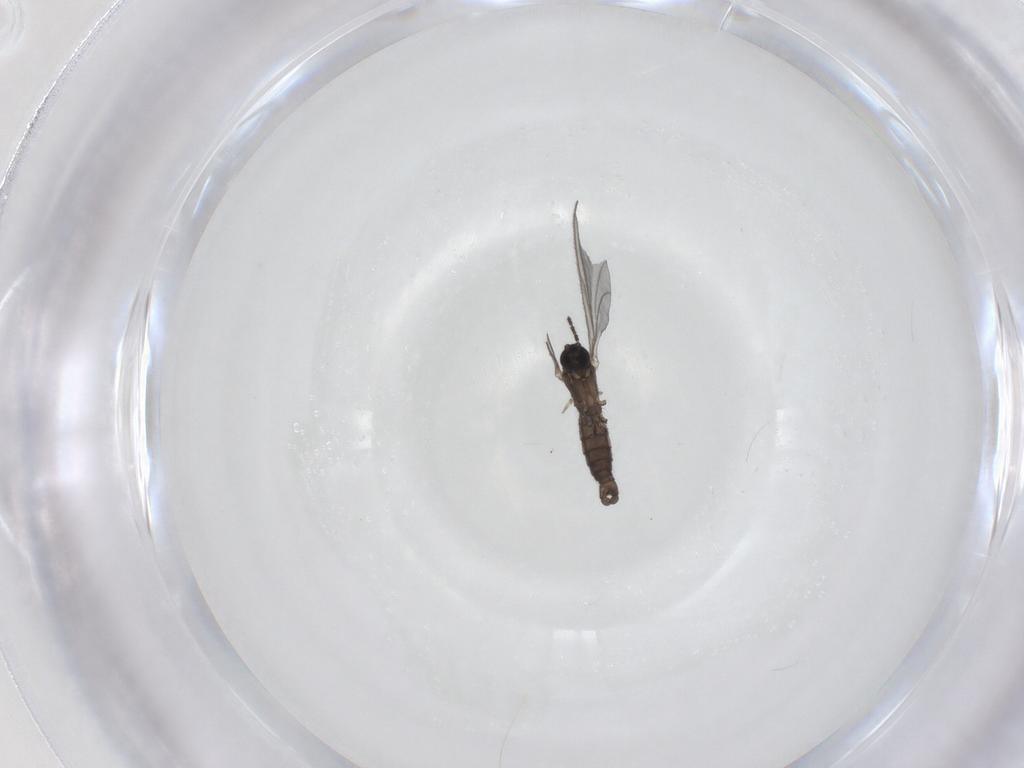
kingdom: Animalia
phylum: Arthropoda
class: Insecta
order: Diptera
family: Sciaridae
